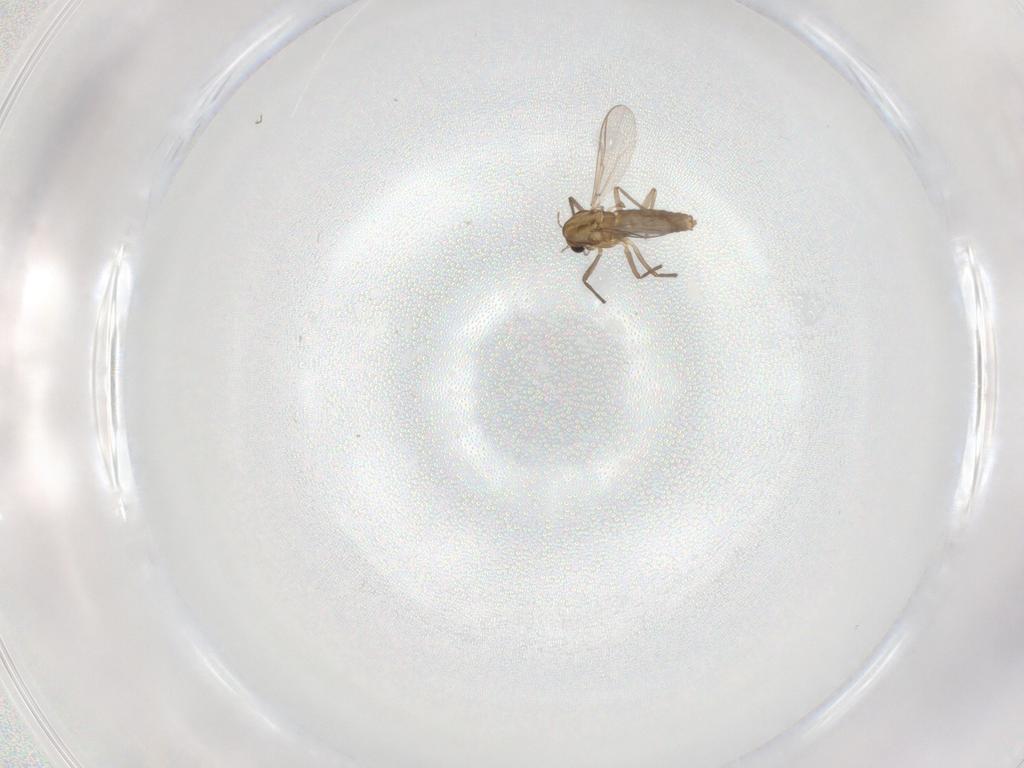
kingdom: Animalia
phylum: Arthropoda
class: Insecta
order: Diptera
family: Chironomidae
